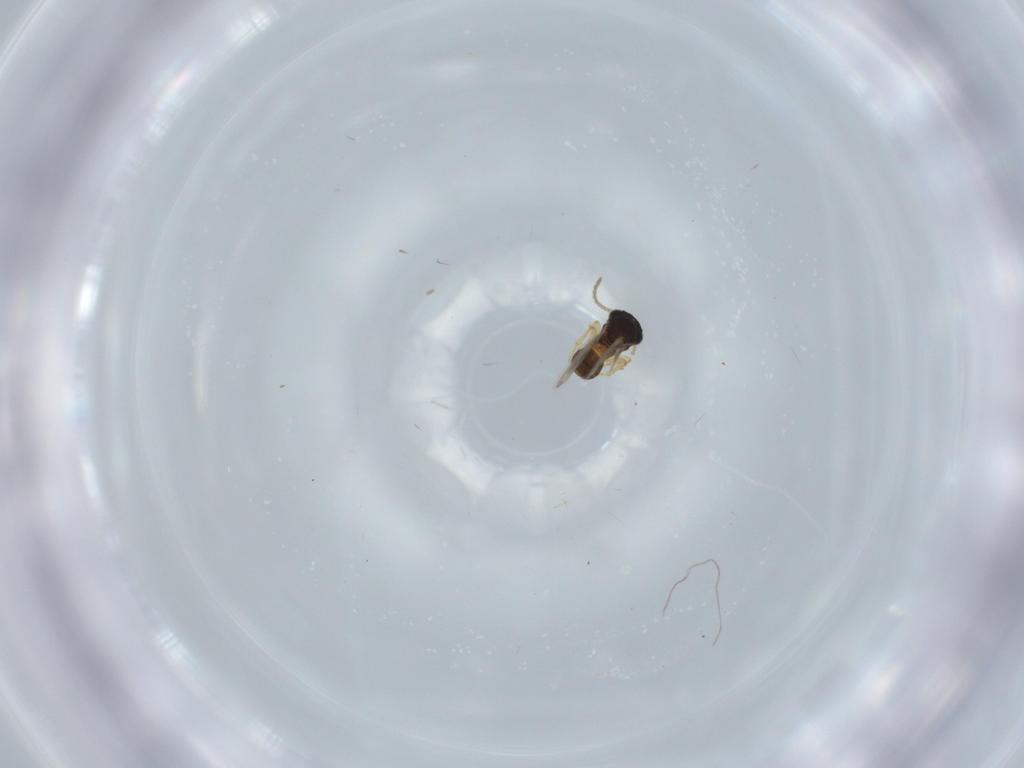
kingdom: Animalia
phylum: Arthropoda
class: Insecta
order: Hymenoptera
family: Scelionidae
